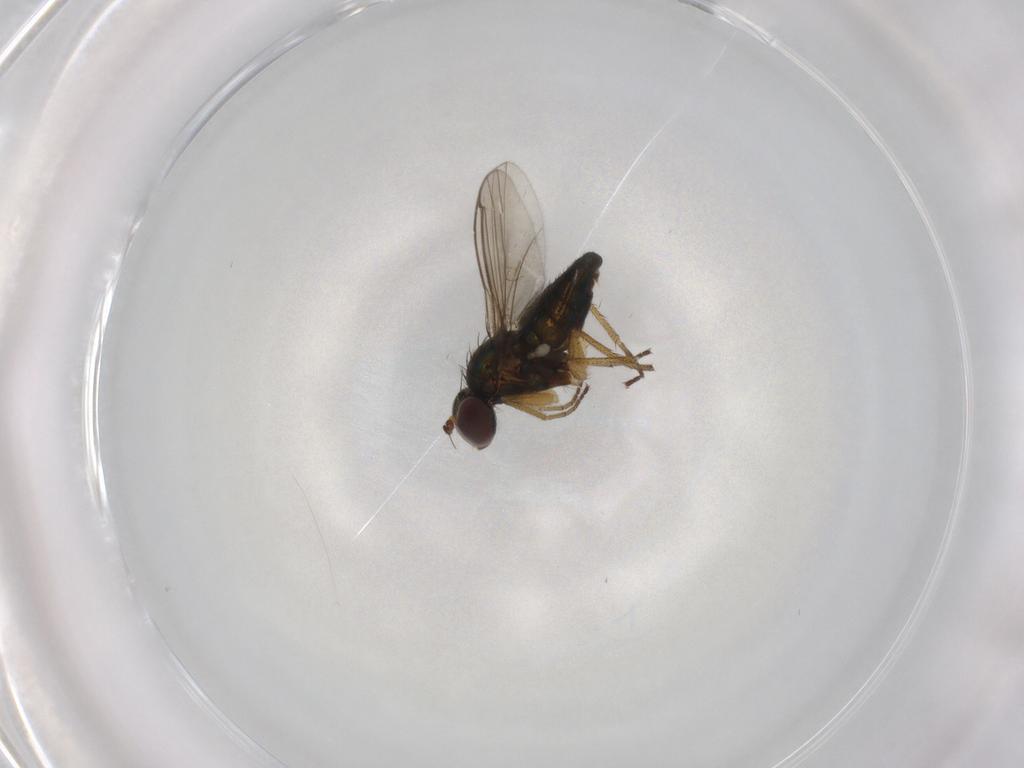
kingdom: Animalia
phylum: Arthropoda
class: Insecta
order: Diptera
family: Dolichopodidae
